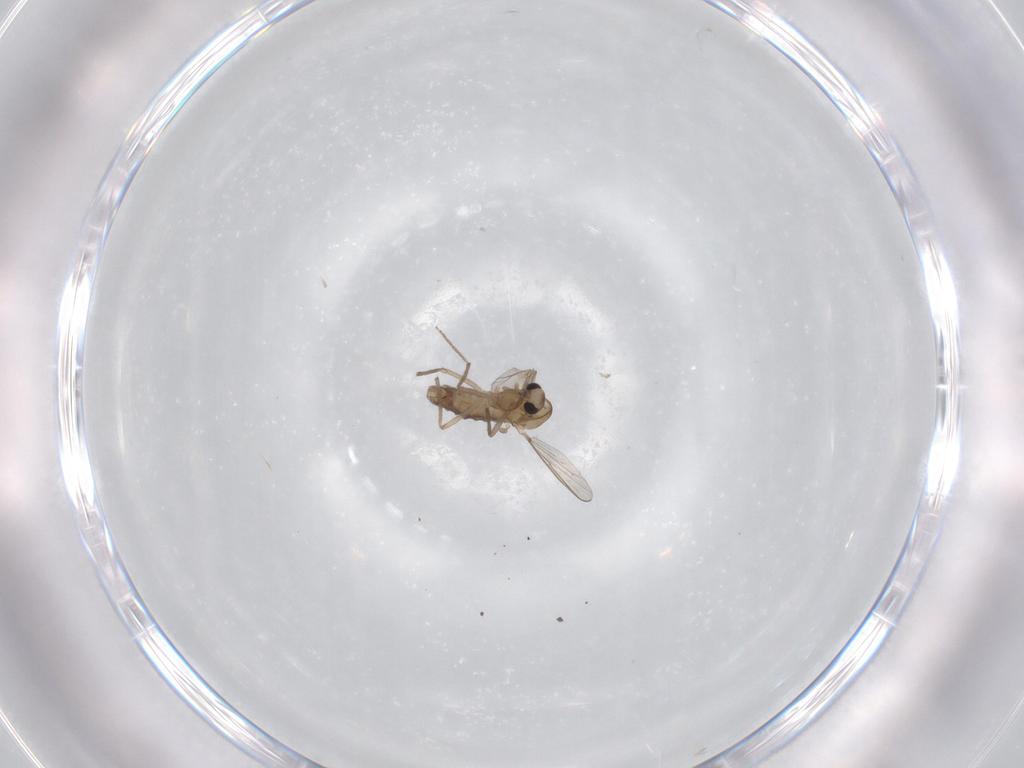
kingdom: Animalia
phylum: Arthropoda
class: Insecta
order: Diptera
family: Chironomidae
